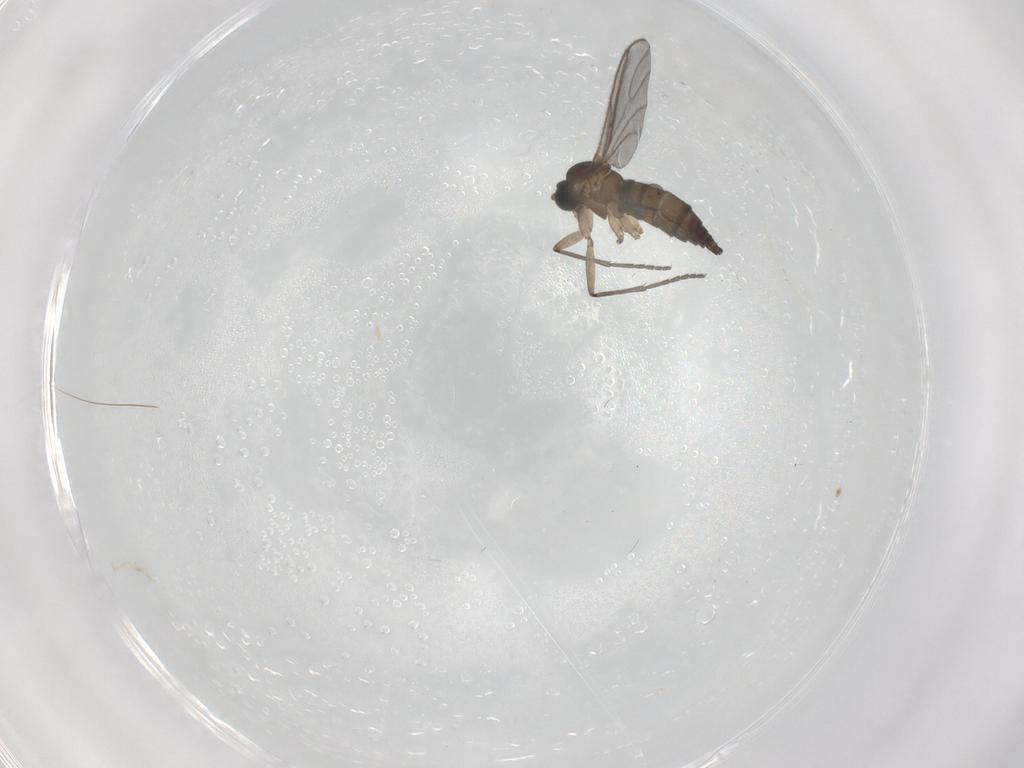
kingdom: Animalia
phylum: Arthropoda
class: Insecta
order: Diptera
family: Sciaridae
